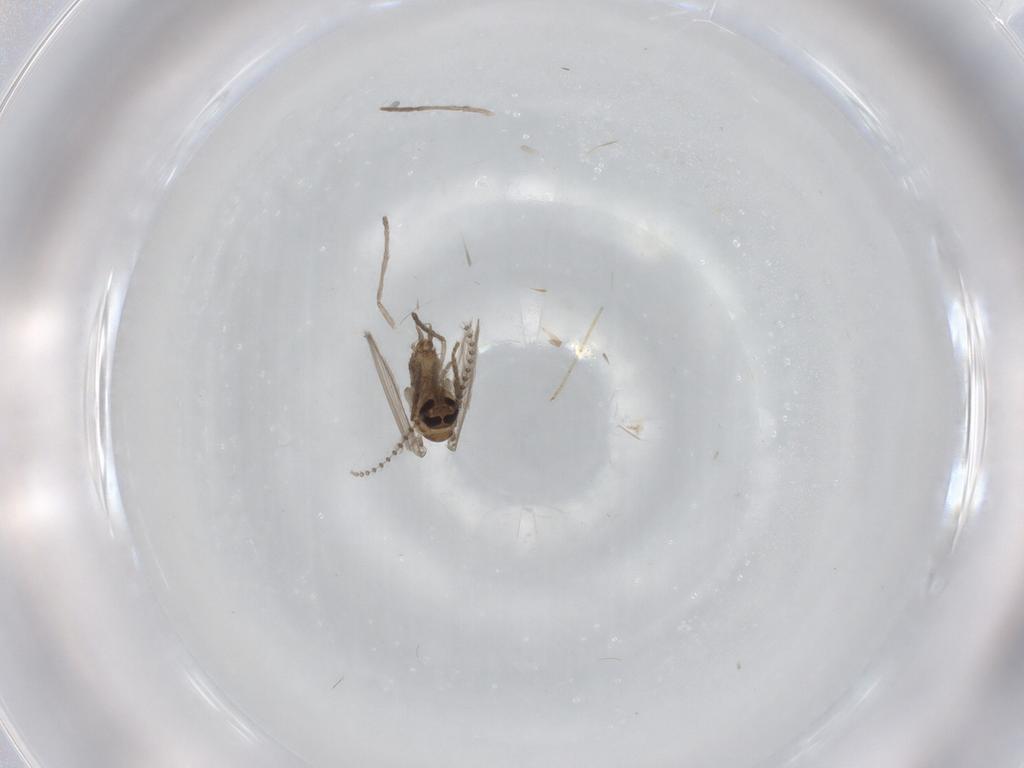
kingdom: Animalia
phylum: Arthropoda
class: Insecta
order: Diptera
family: Psychodidae
